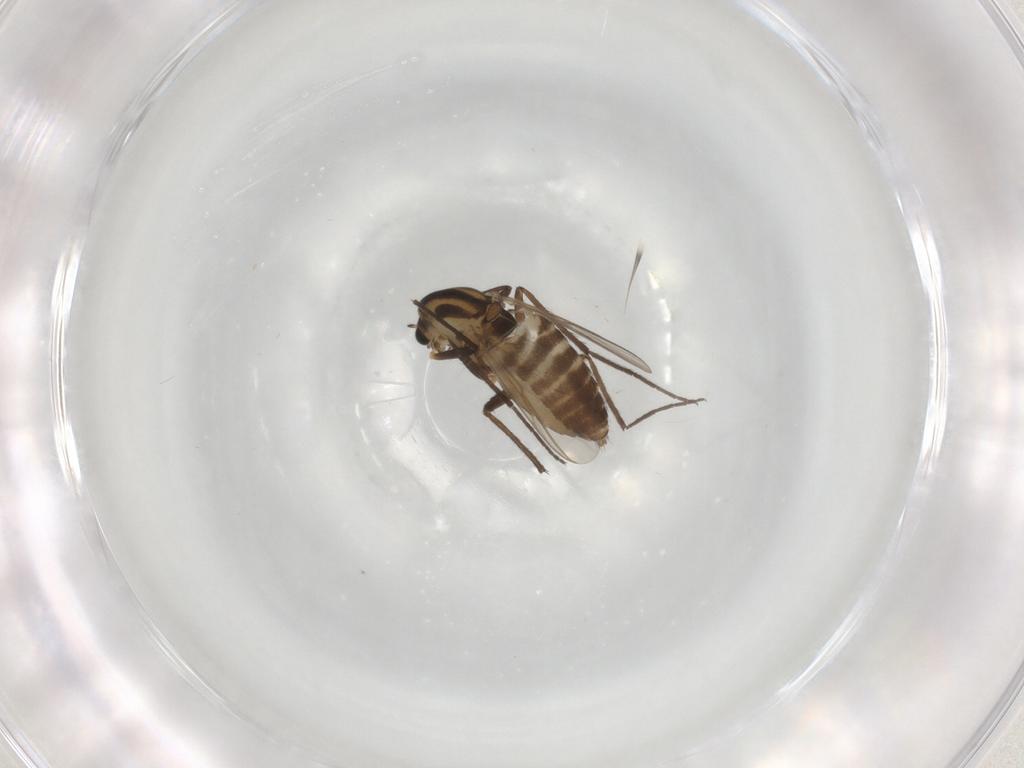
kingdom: Animalia
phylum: Arthropoda
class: Insecta
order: Diptera
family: Chironomidae
